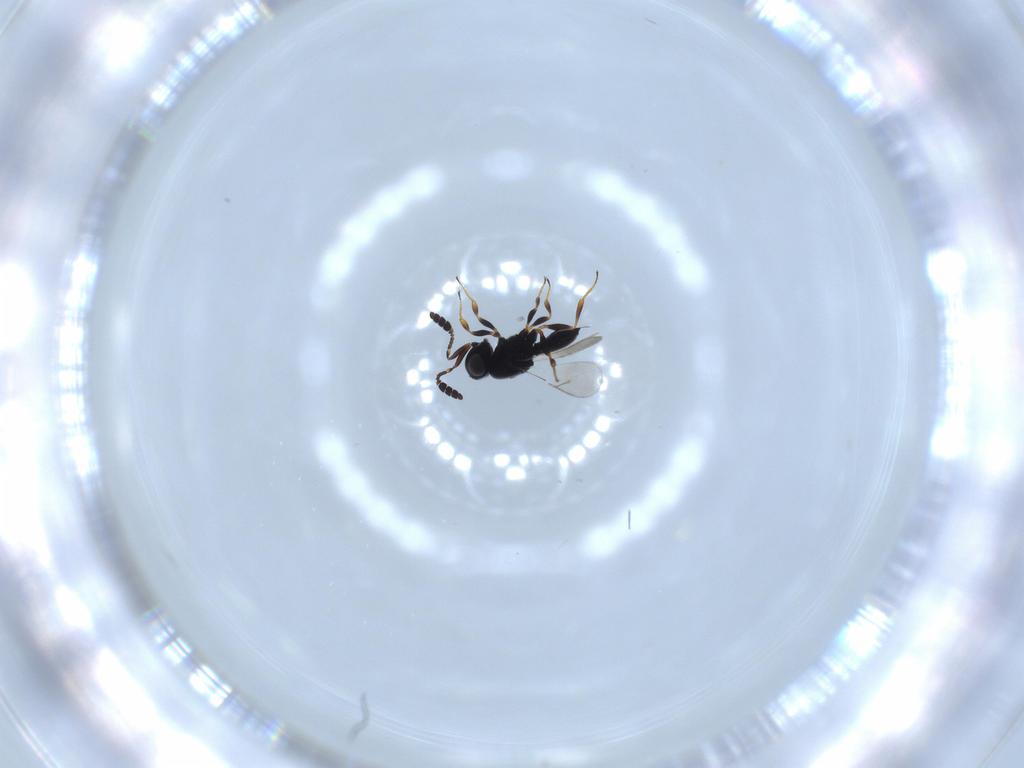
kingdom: Animalia
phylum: Arthropoda
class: Insecta
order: Hymenoptera
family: Scelionidae
